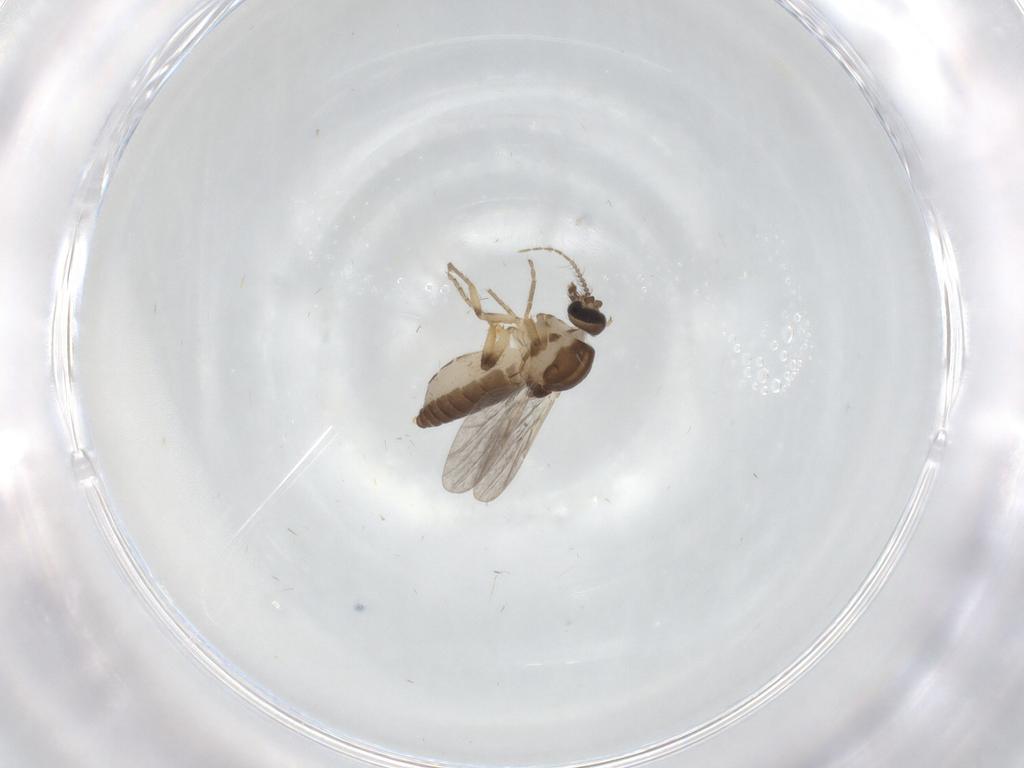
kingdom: Animalia
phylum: Arthropoda
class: Insecta
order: Diptera
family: Ceratopogonidae
